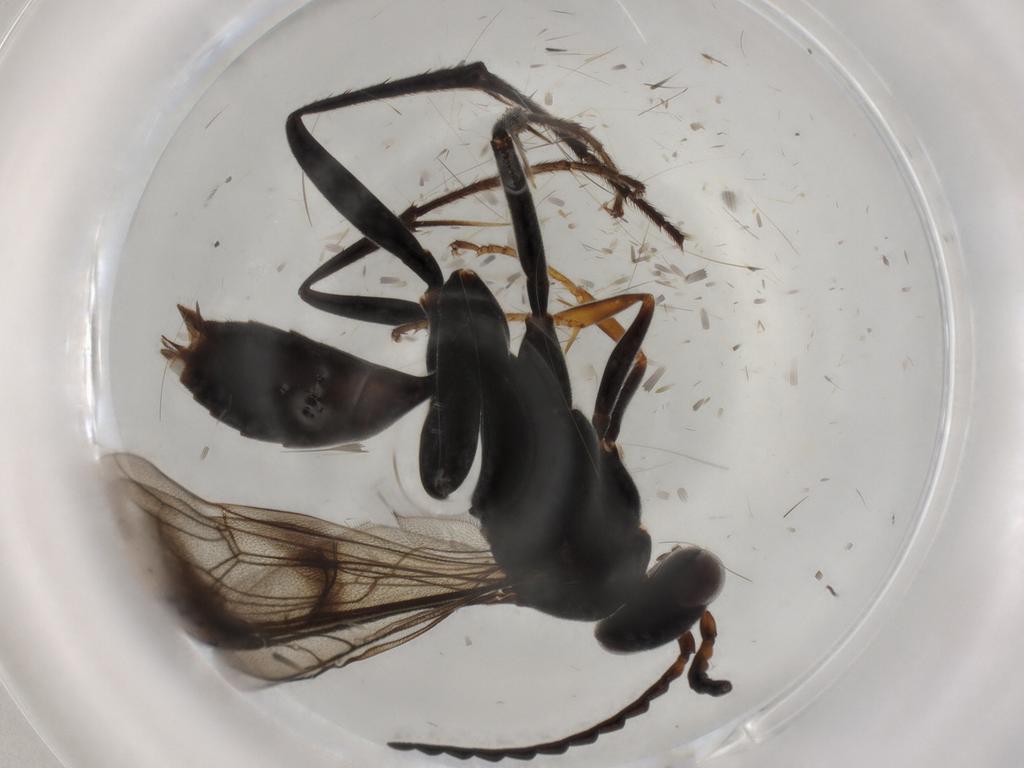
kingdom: Animalia
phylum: Arthropoda
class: Insecta
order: Hymenoptera
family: Pompilidae
